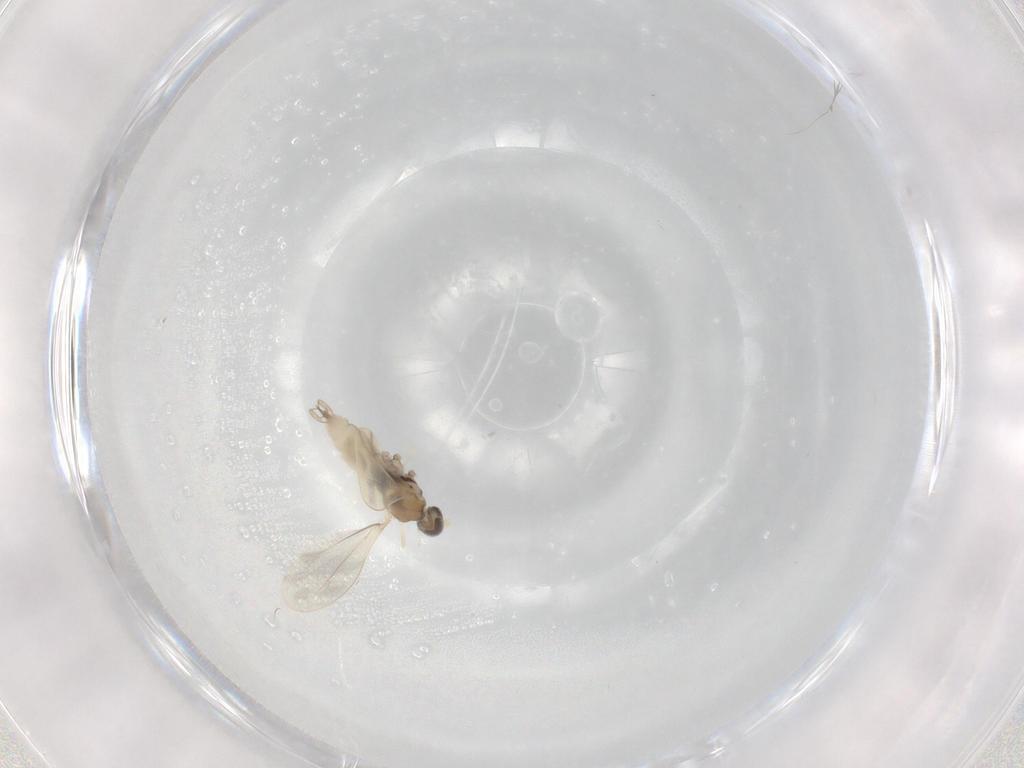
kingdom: Animalia
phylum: Arthropoda
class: Insecta
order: Diptera
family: Cecidomyiidae
